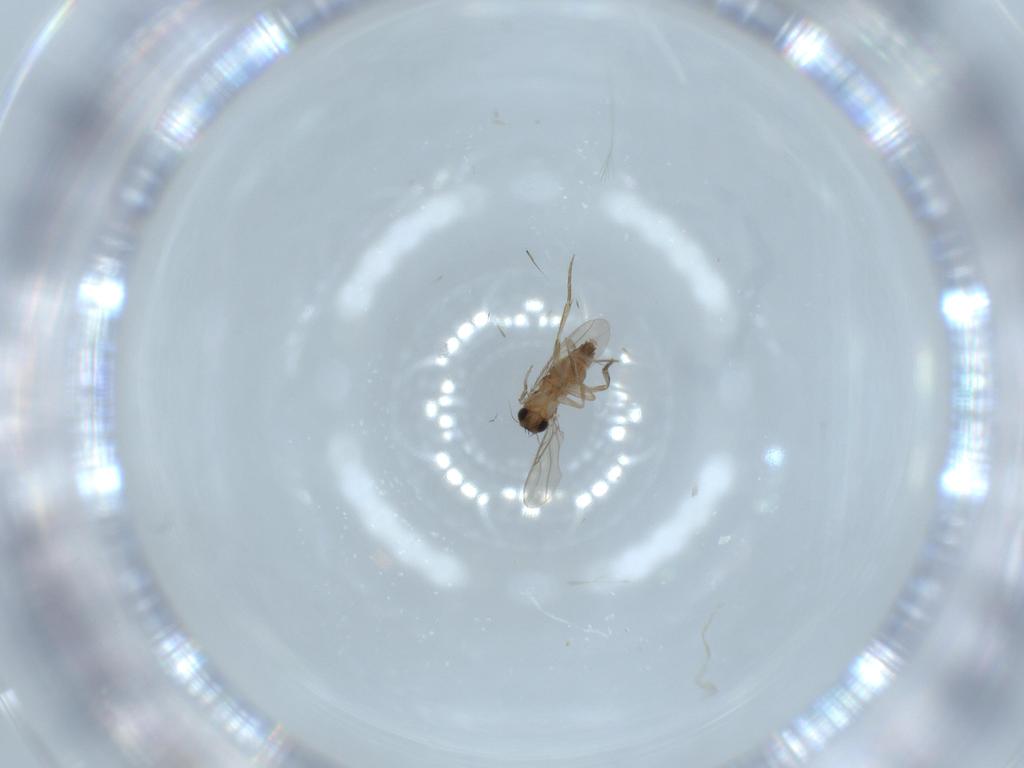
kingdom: Animalia
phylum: Arthropoda
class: Insecta
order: Diptera
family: Phoridae
